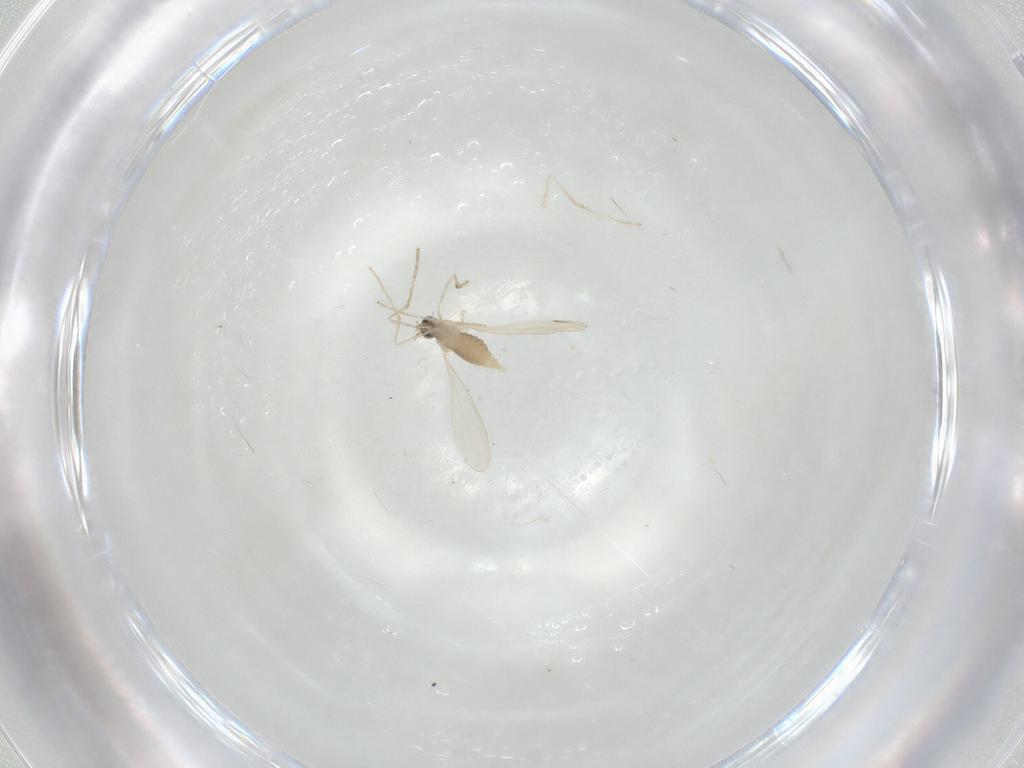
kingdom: Animalia
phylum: Arthropoda
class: Insecta
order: Diptera
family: Cecidomyiidae
